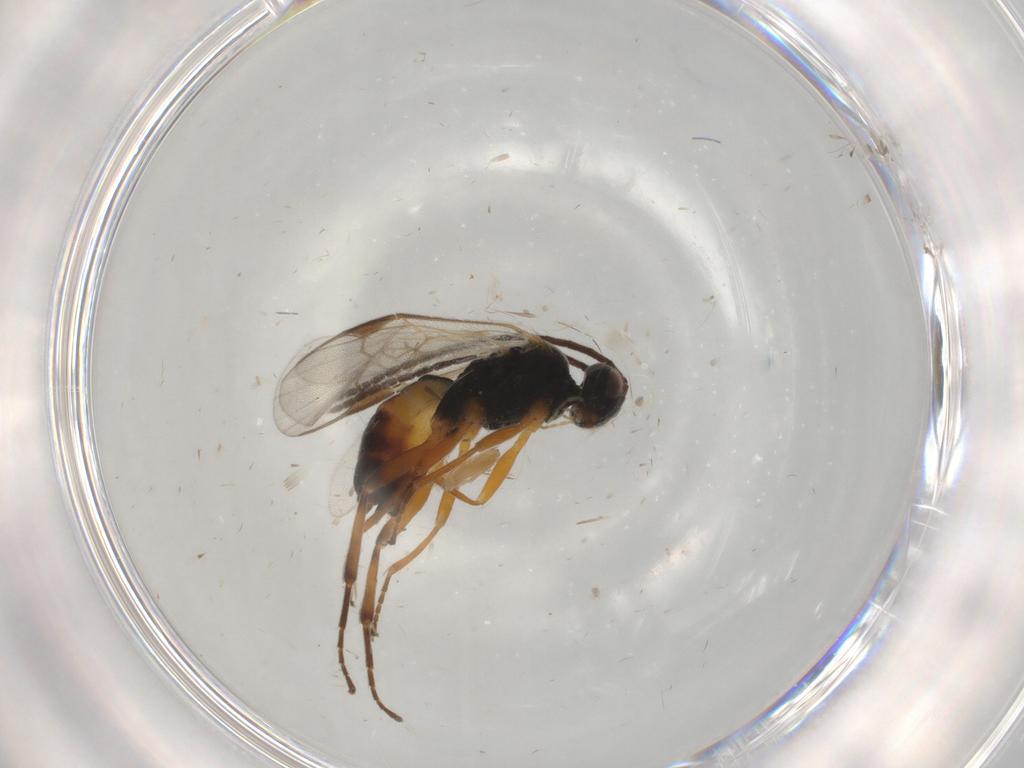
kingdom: Animalia
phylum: Arthropoda
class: Insecta
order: Hymenoptera
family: Braconidae
